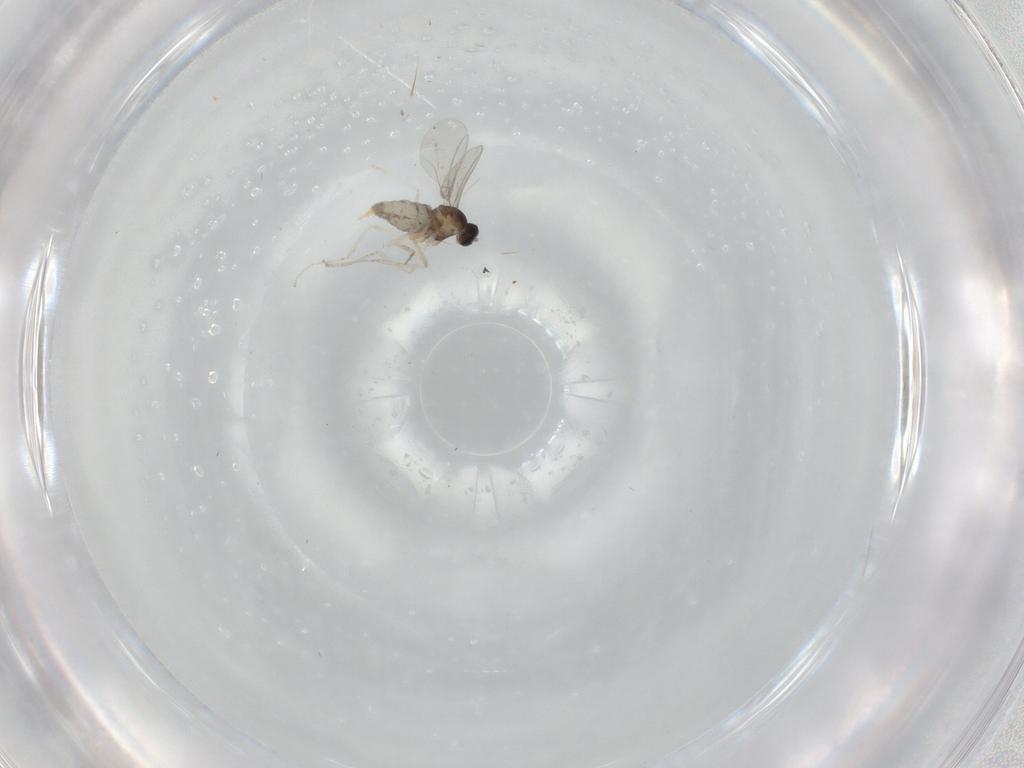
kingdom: Animalia
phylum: Arthropoda
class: Insecta
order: Diptera
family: Cecidomyiidae
